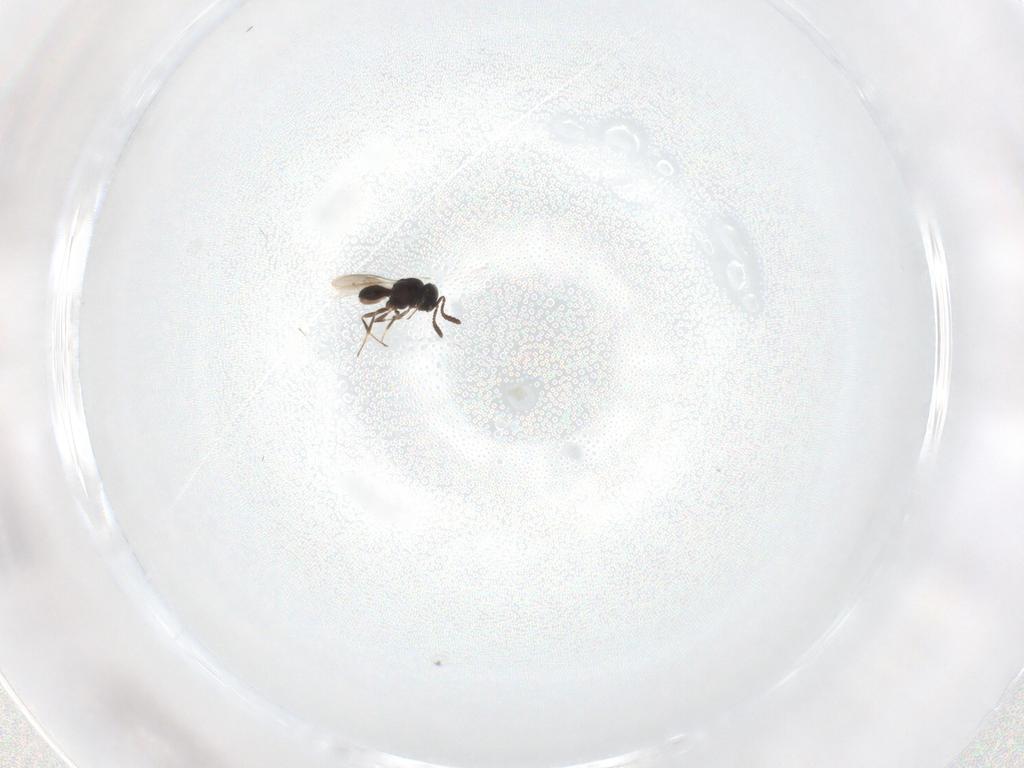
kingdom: Animalia
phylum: Arthropoda
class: Insecta
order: Hymenoptera
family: Scelionidae
